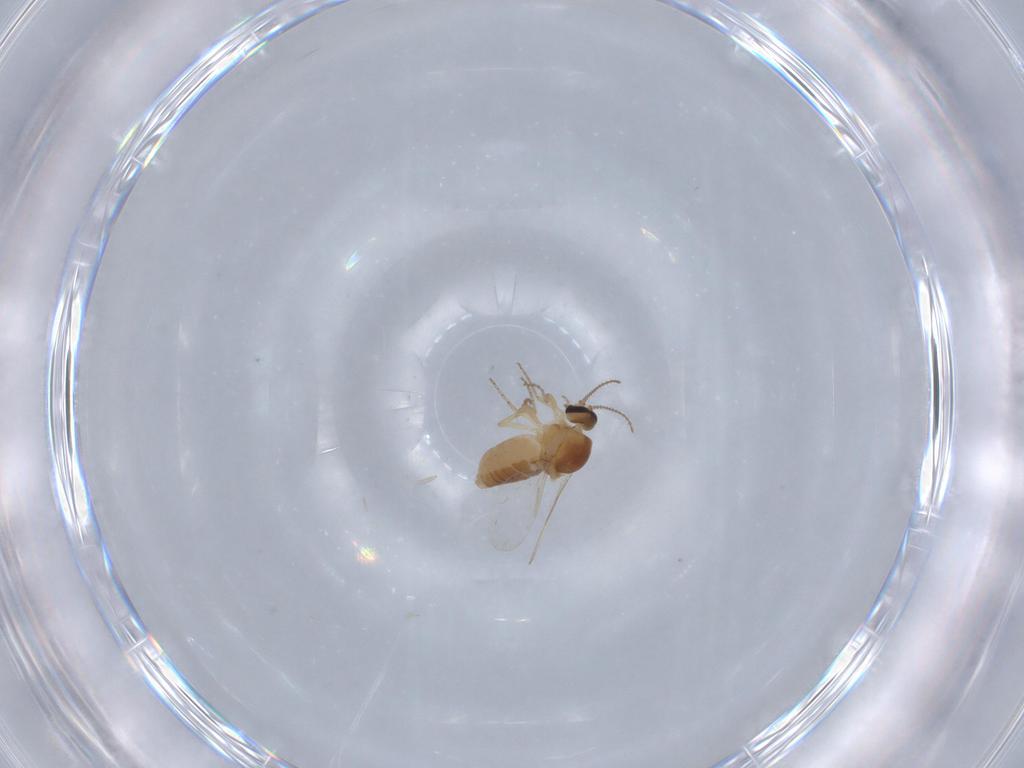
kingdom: Animalia
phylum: Arthropoda
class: Insecta
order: Diptera
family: Ceratopogonidae
